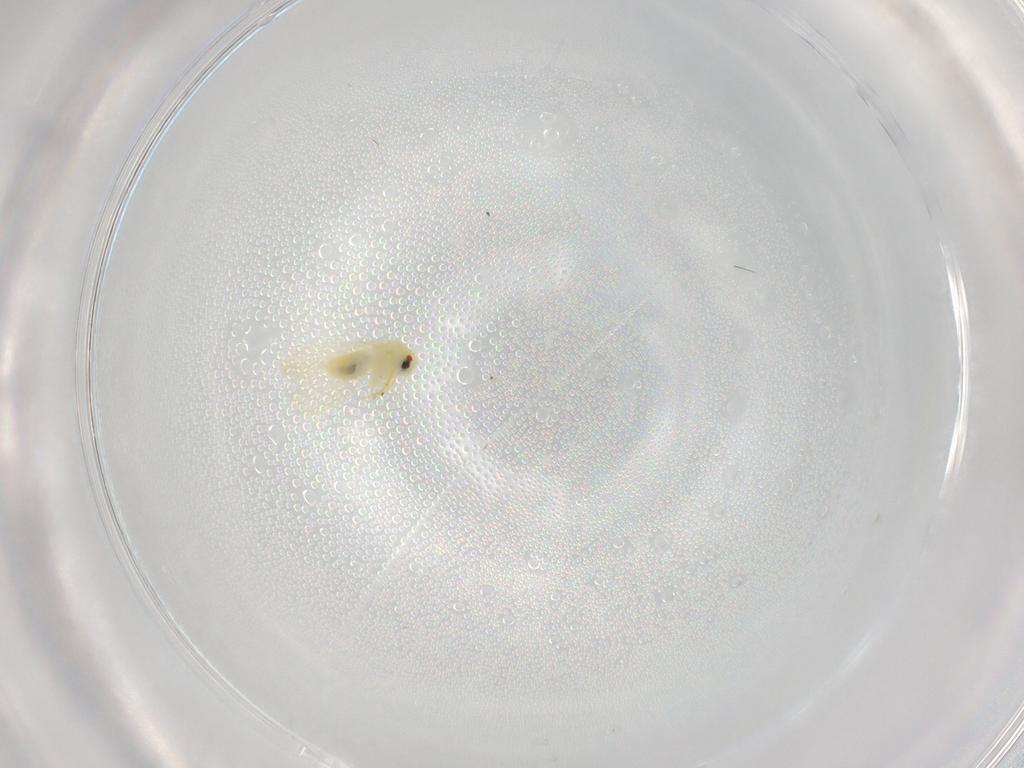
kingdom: Animalia
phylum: Arthropoda
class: Insecta
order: Hemiptera
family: Aleyrodidae
